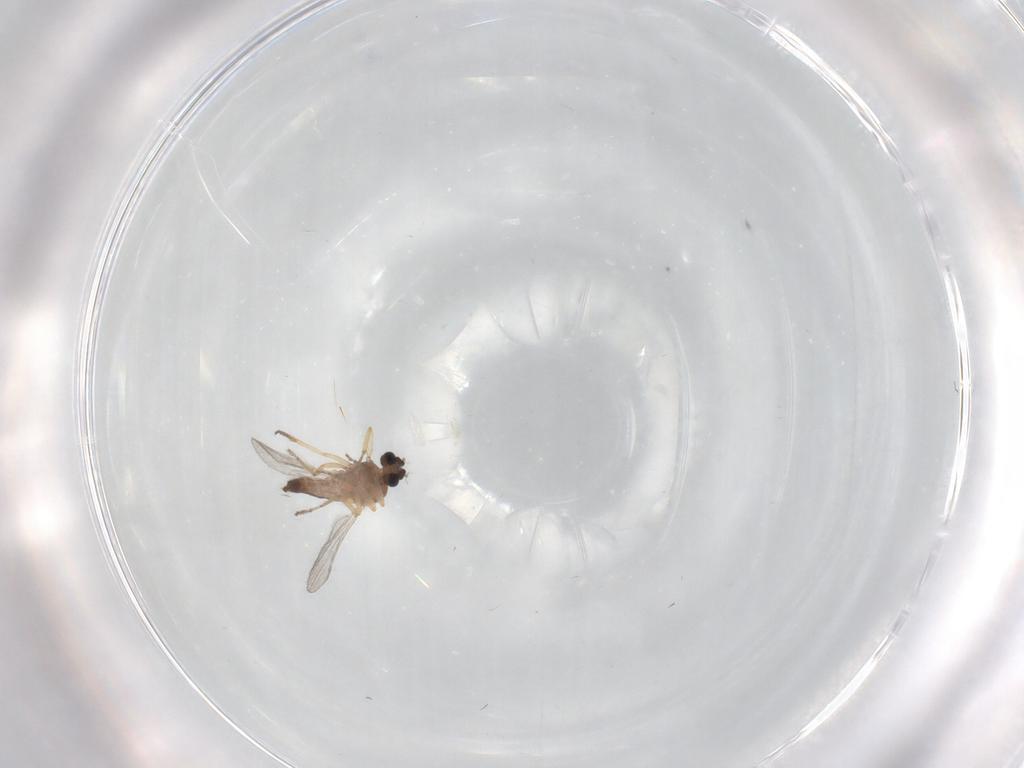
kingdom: Animalia
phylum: Arthropoda
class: Insecta
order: Diptera
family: Ceratopogonidae
